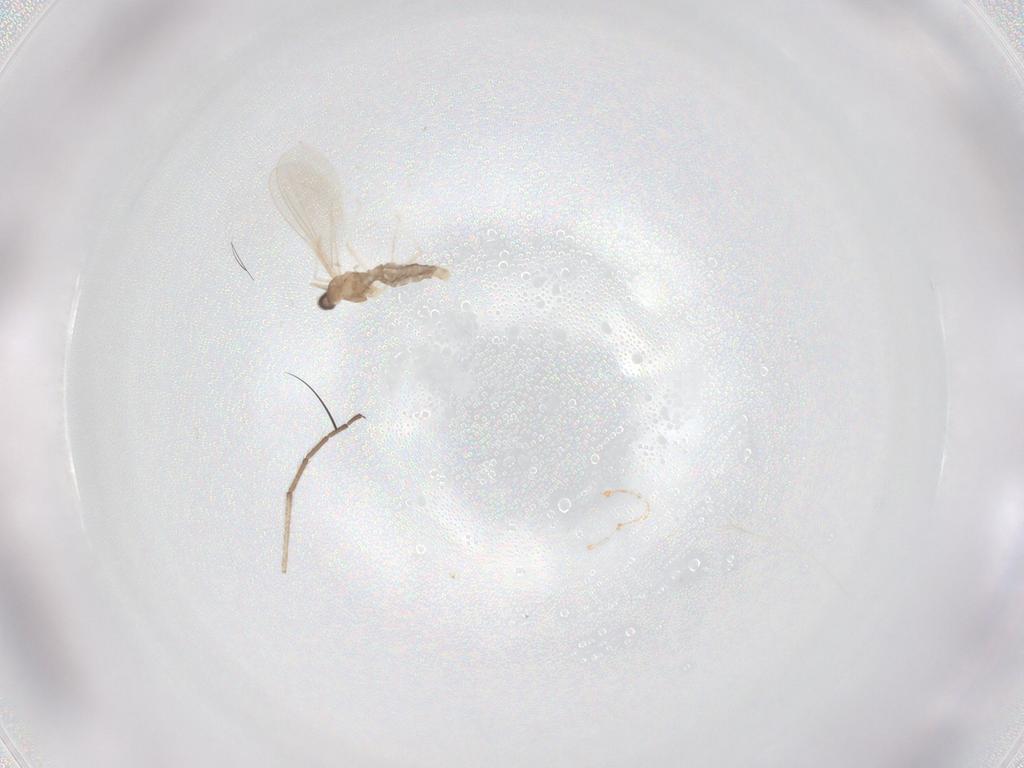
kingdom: Animalia
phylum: Arthropoda
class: Insecta
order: Diptera
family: Cecidomyiidae
